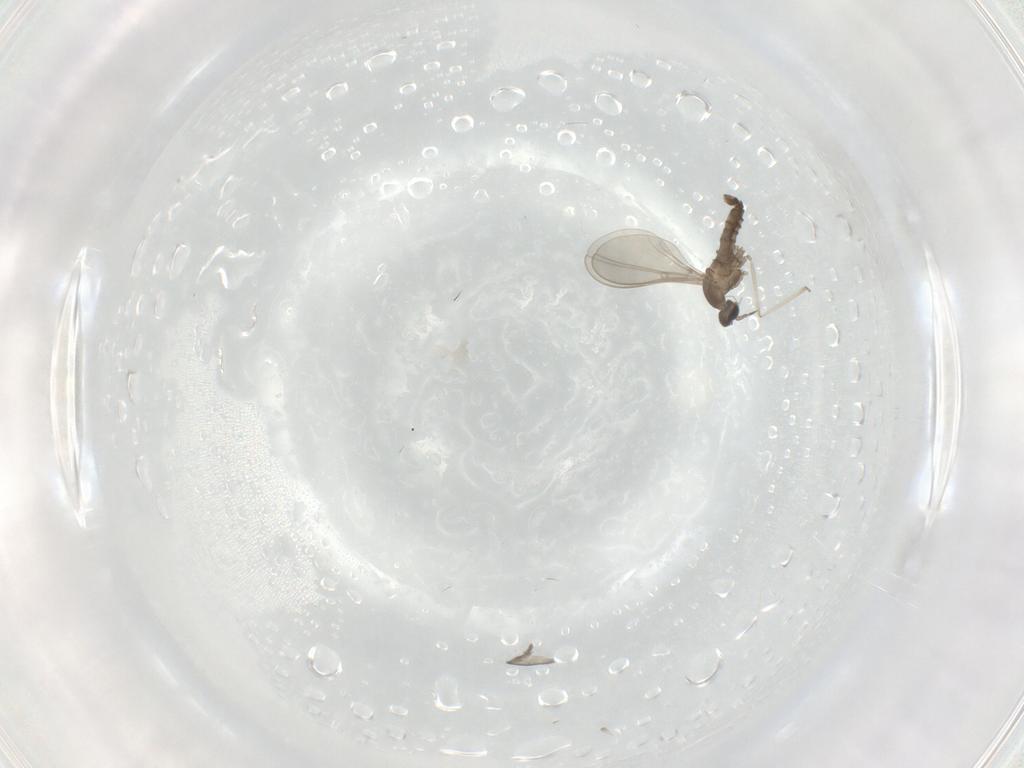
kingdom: Animalia
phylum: Arthropoda
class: Insecta
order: Diptera
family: Cecidomyiidae
